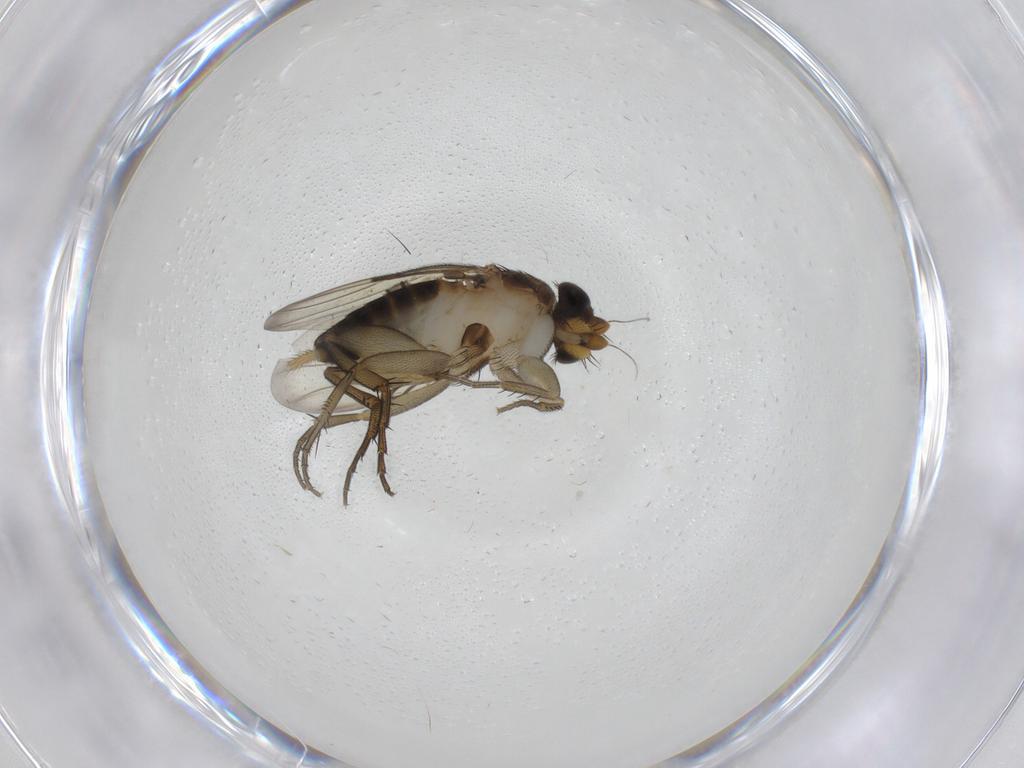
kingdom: Animalia
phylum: Arthropoda
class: Insecta
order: Diptera
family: Phoridae
